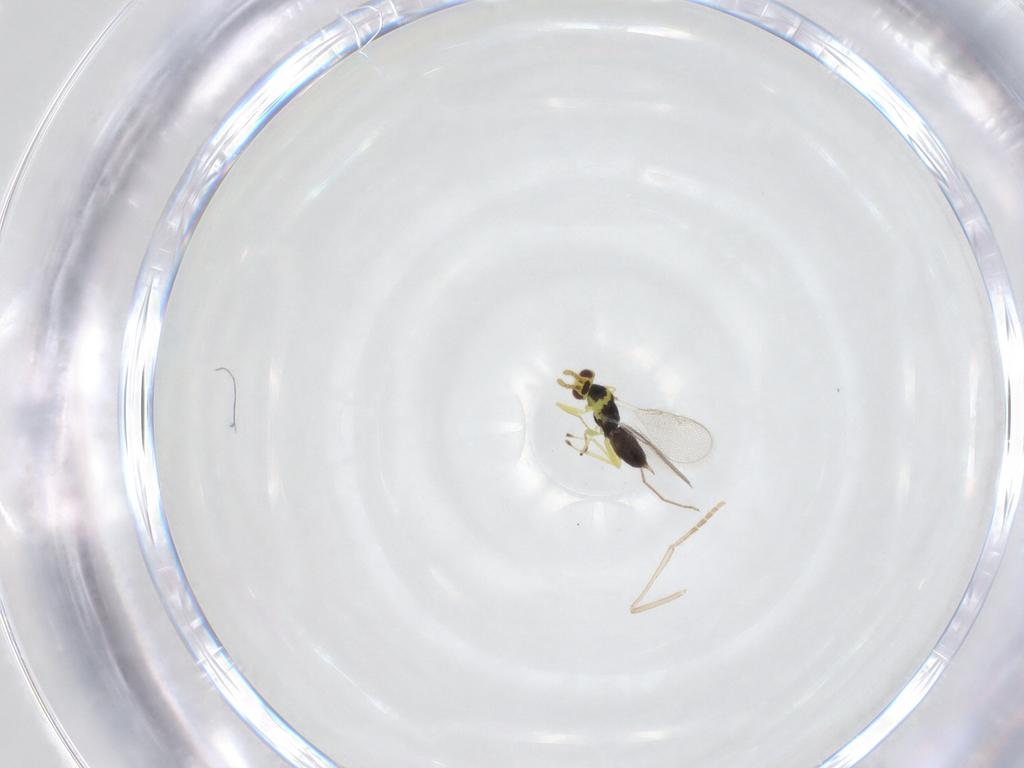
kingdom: Animalia
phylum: Arthropoda
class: Insecta
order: Hymenoptera
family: Eulophidae
